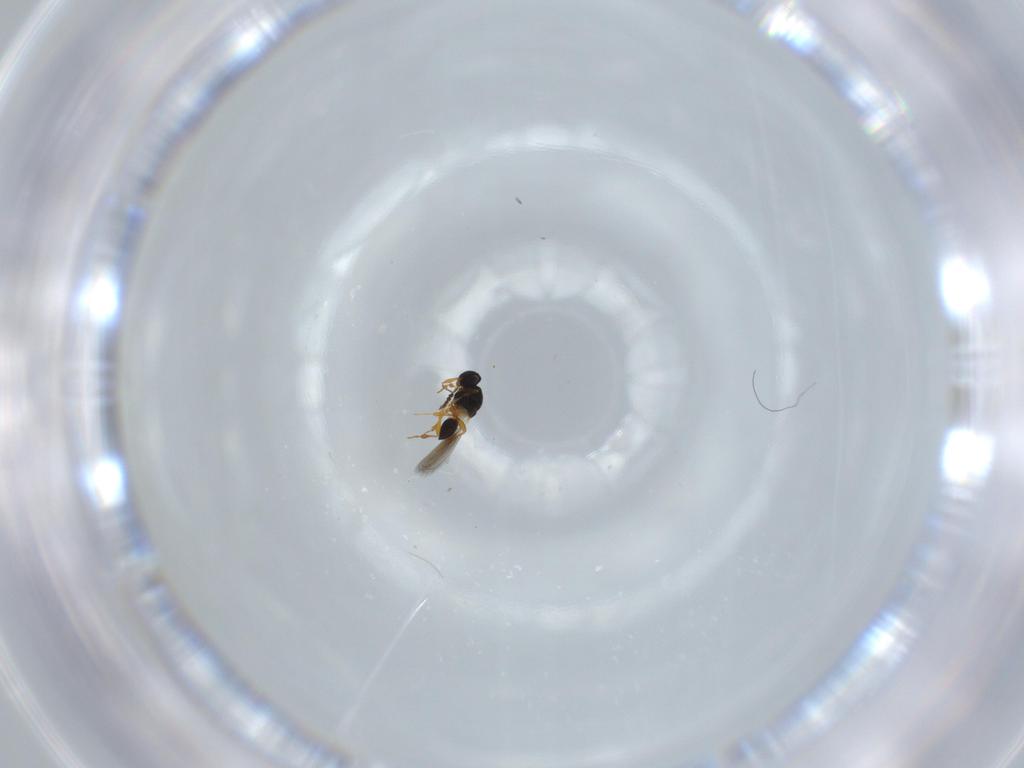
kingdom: Animalia
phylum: Arthropoda
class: Insecta
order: Hymenoptera
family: Platygastridae
